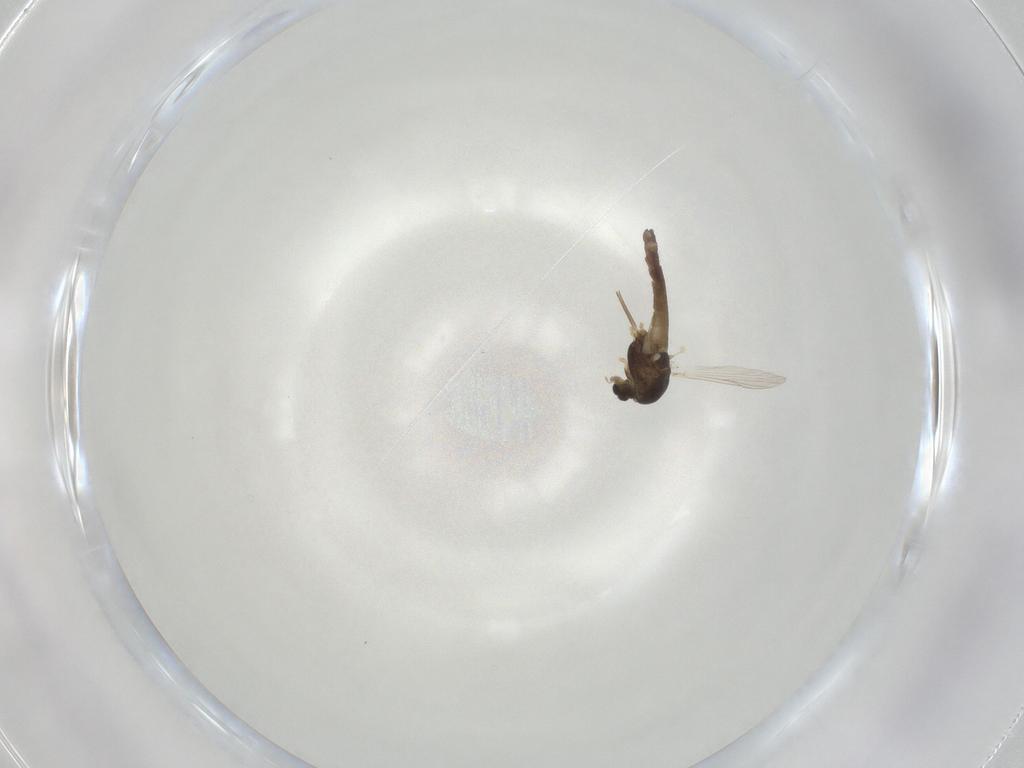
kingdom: Animalia
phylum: Arthropoda
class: Insecta
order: Diptera
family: Chironomidae
